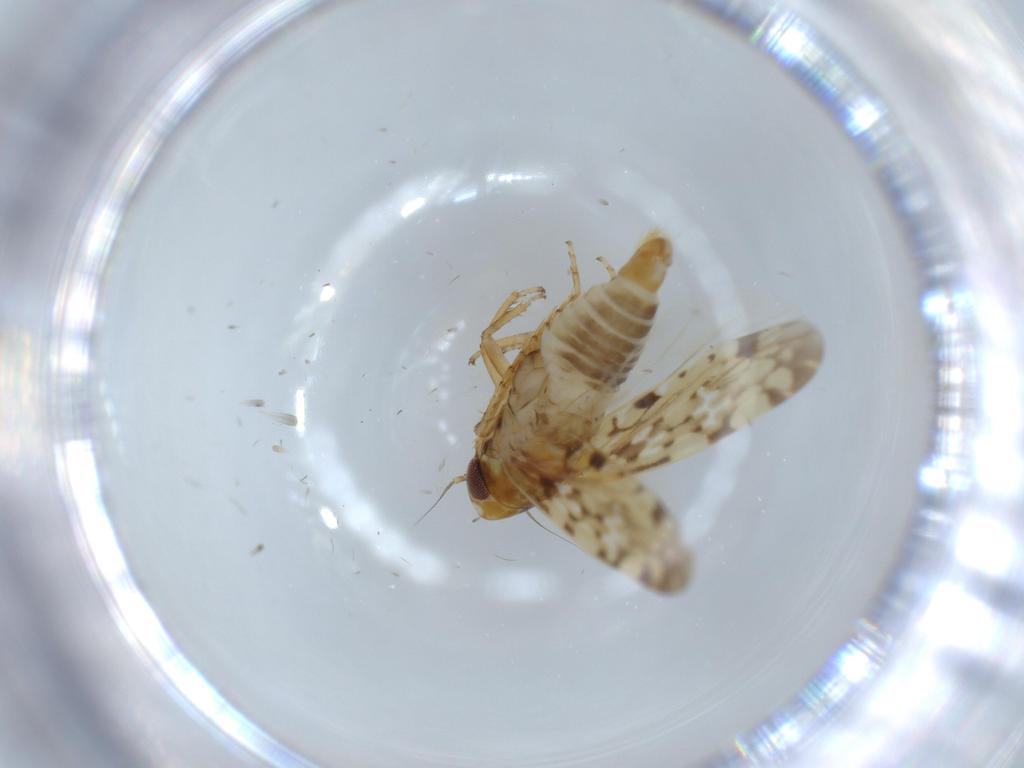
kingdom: Animalia
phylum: Arthropoda
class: Insecta
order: Hemiptera
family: Cicadellidae
